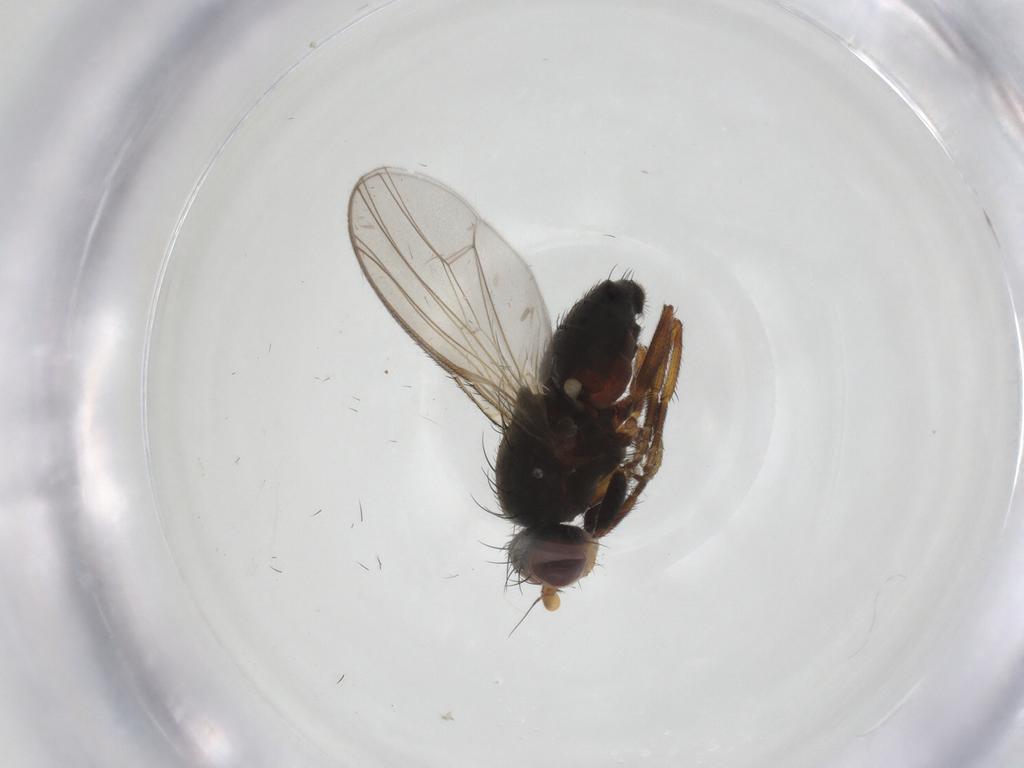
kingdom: Animalia
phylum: Arthropoda
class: Insecta
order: Diptera
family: Heleomyzidae
